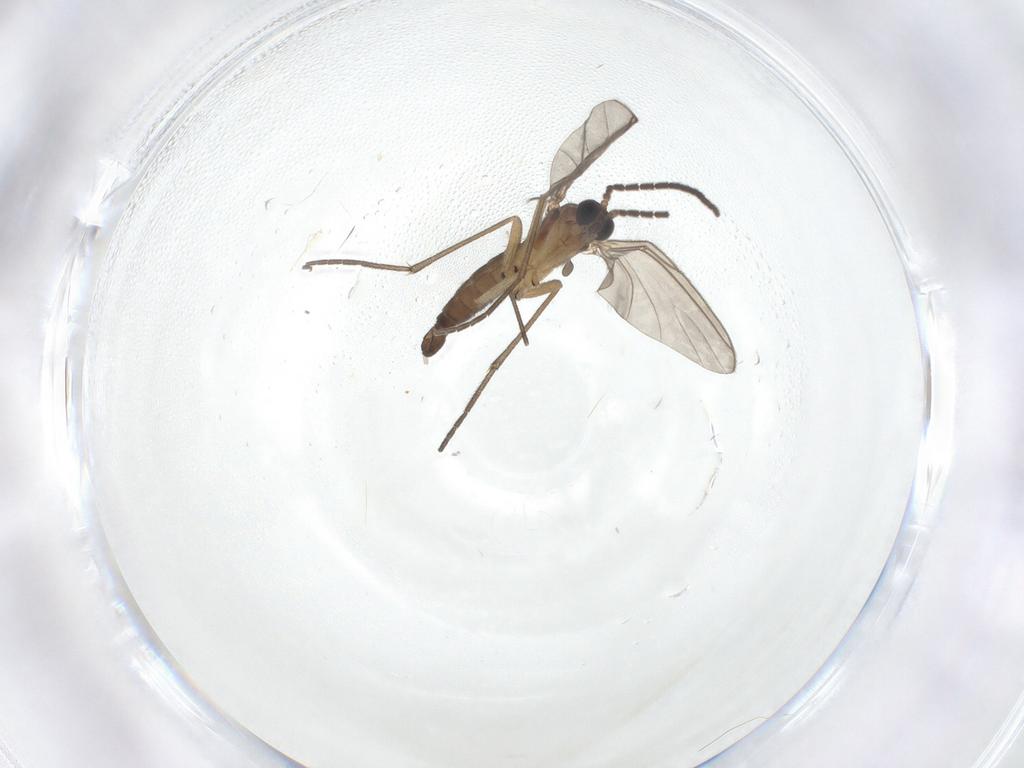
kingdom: Animalia
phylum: Arthropoda
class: Insecta
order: Diptera
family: Sciaridae
